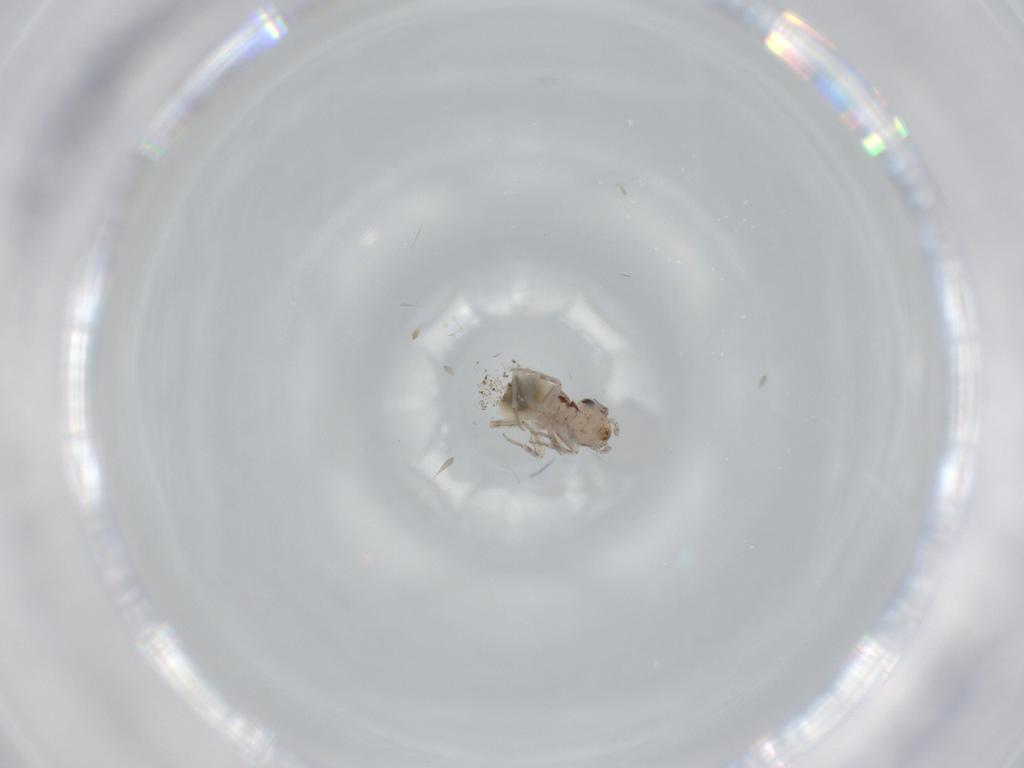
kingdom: Animalia
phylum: Arthropoda
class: Insecta
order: Psocodea
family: Lepidopsocidae
